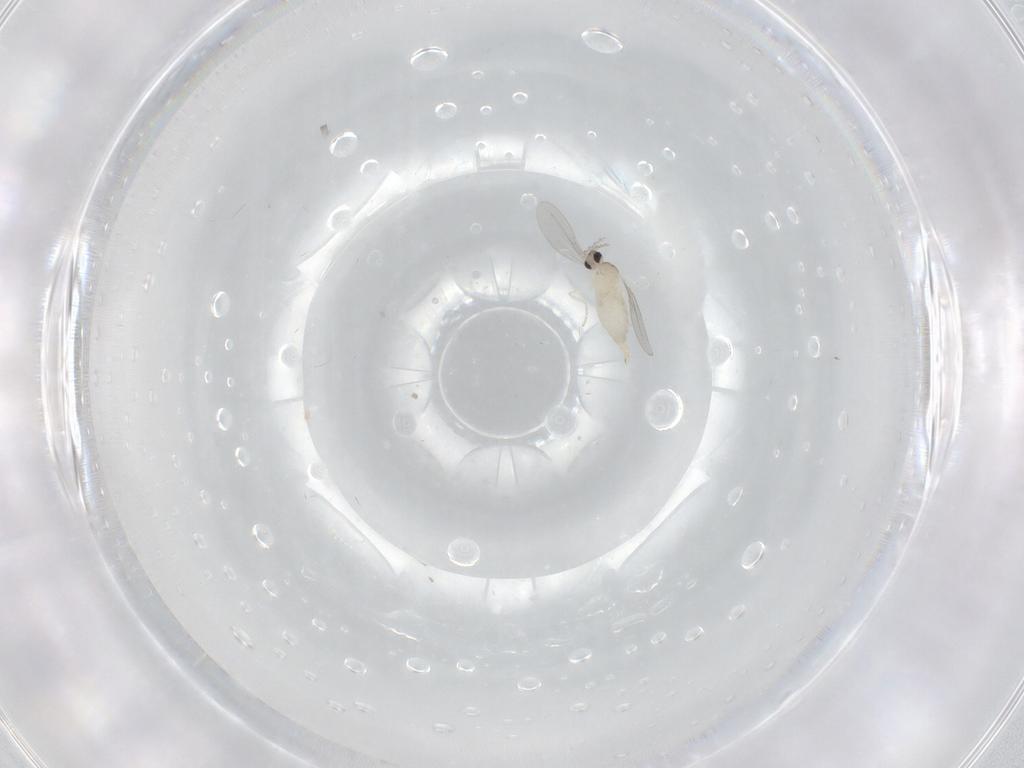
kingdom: Animalia
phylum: Arthropoda
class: Insecta
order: Diptera
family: Cecidomyiidae
